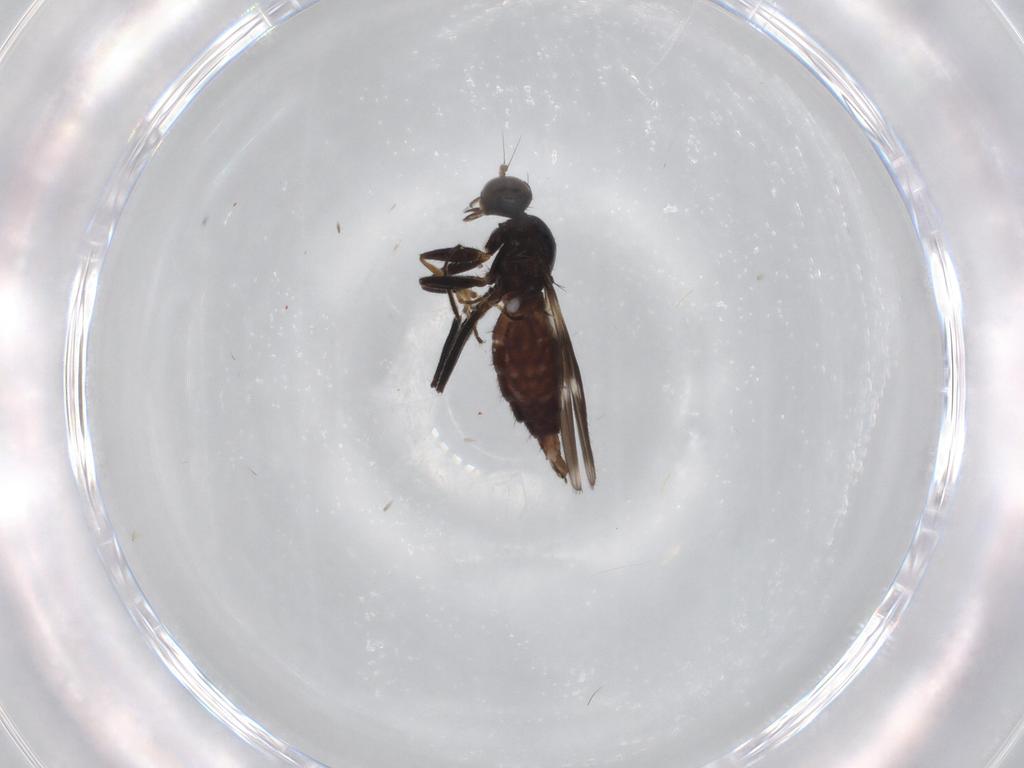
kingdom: Animalia
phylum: Arthropoda
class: Insecta
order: Diptera
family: Hybotidae
